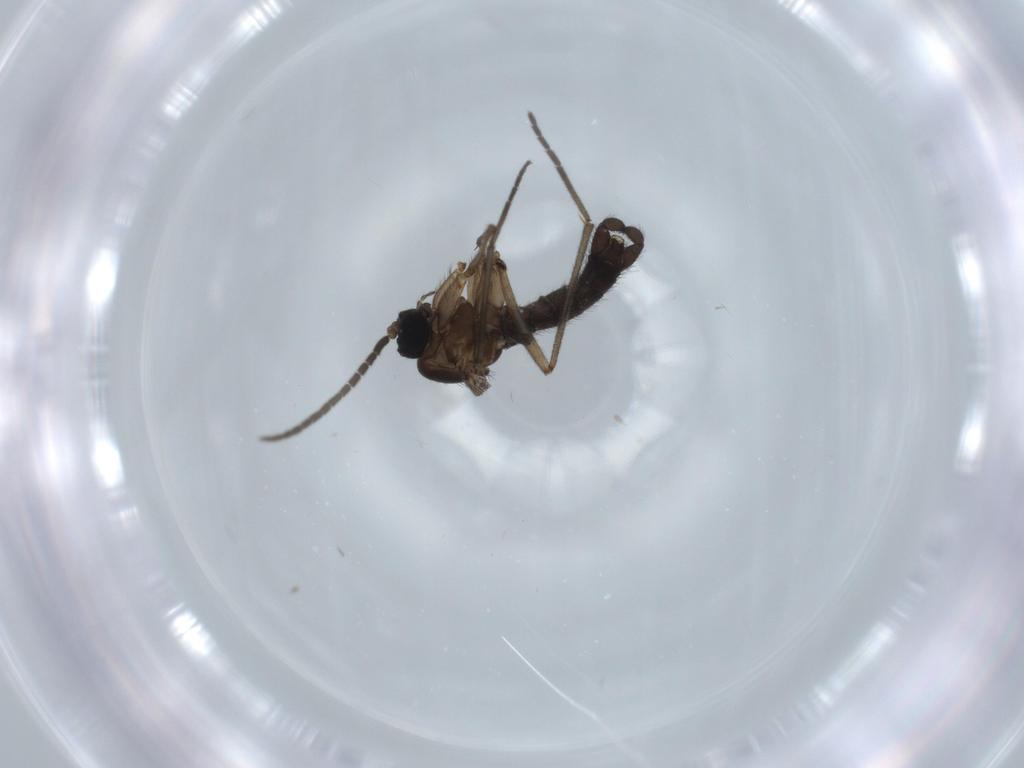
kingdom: Animalia
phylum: Arthropoda
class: Insecta
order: Diptera
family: Sciaridae
